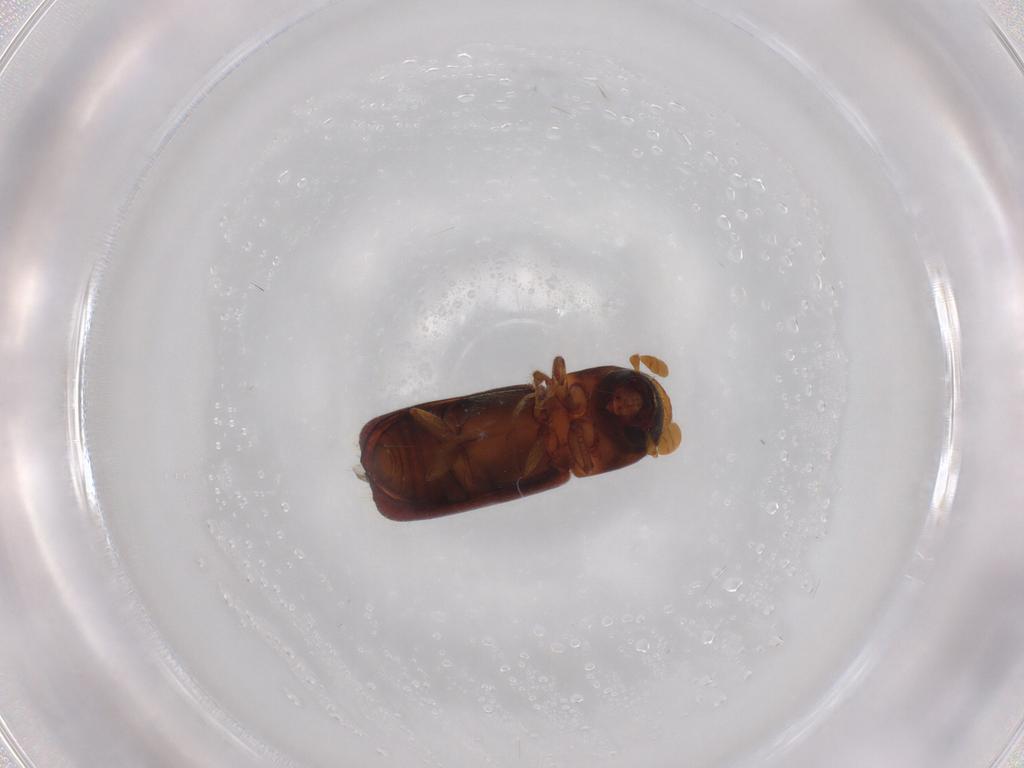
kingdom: Animalia
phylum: Arthropoda
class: Insecta
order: Coleoptera
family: Curculionidae
